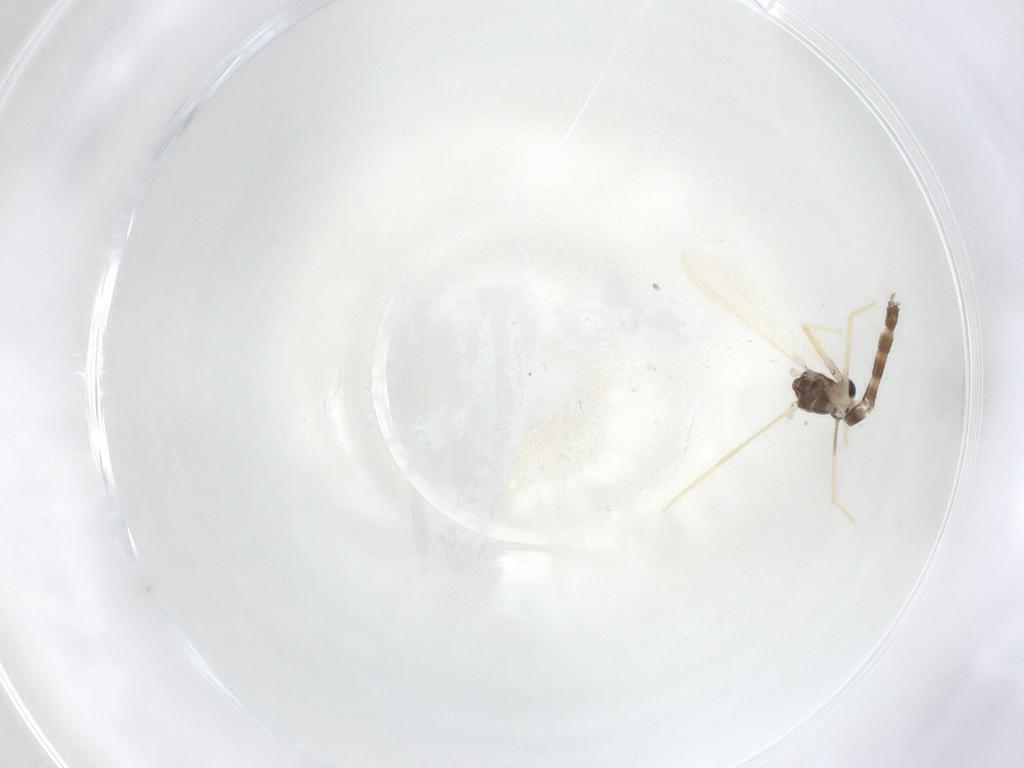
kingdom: Animalia
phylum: Arthropoda
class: Insecta
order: Diptera
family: Chironomidae
